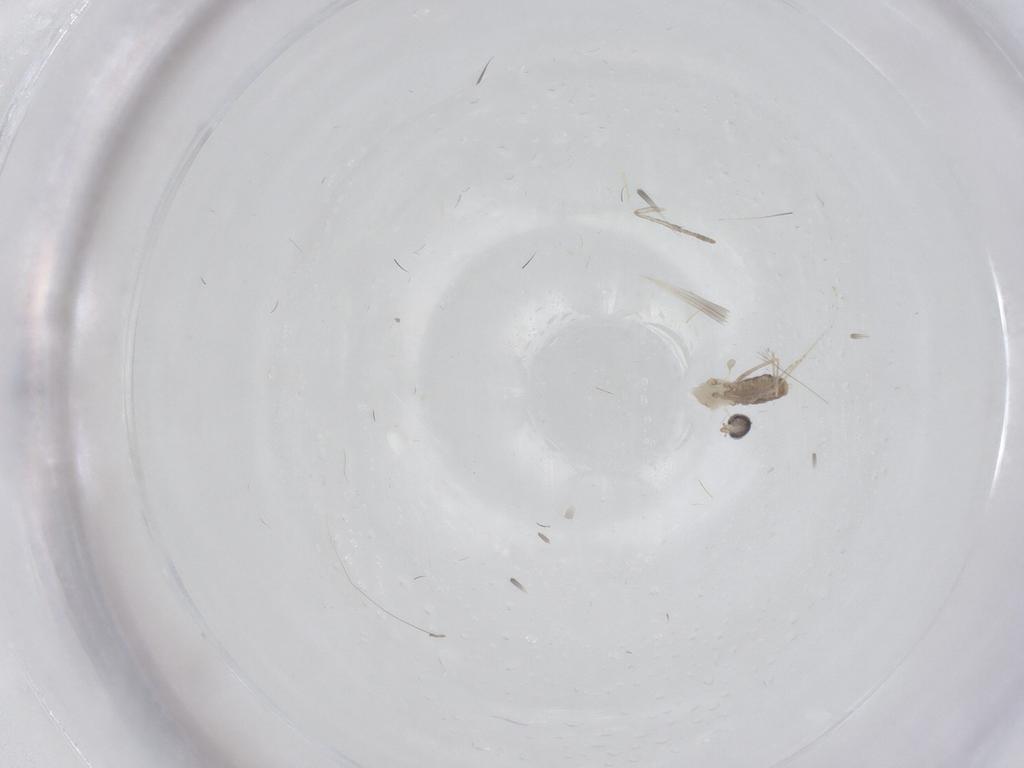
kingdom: Animalia
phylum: Arthropoda
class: Insecta
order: Diptera
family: Cecidomyiidae
